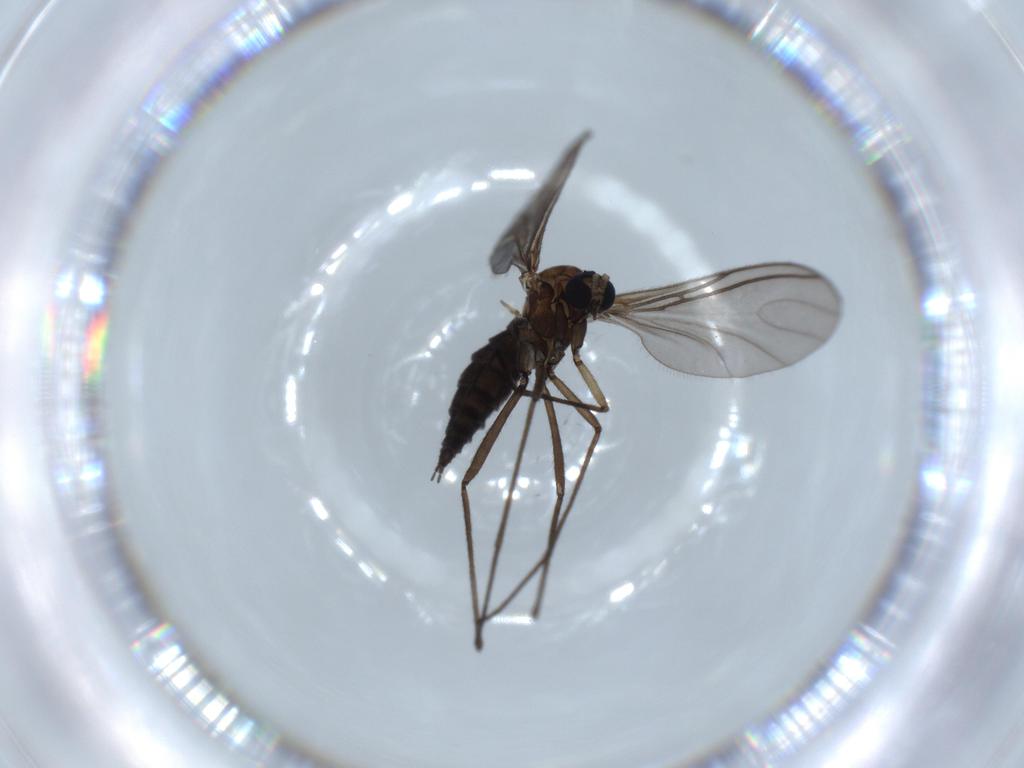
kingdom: Animalia
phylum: Arthropoda
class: Insecta
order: Diptera
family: Sciaridae
